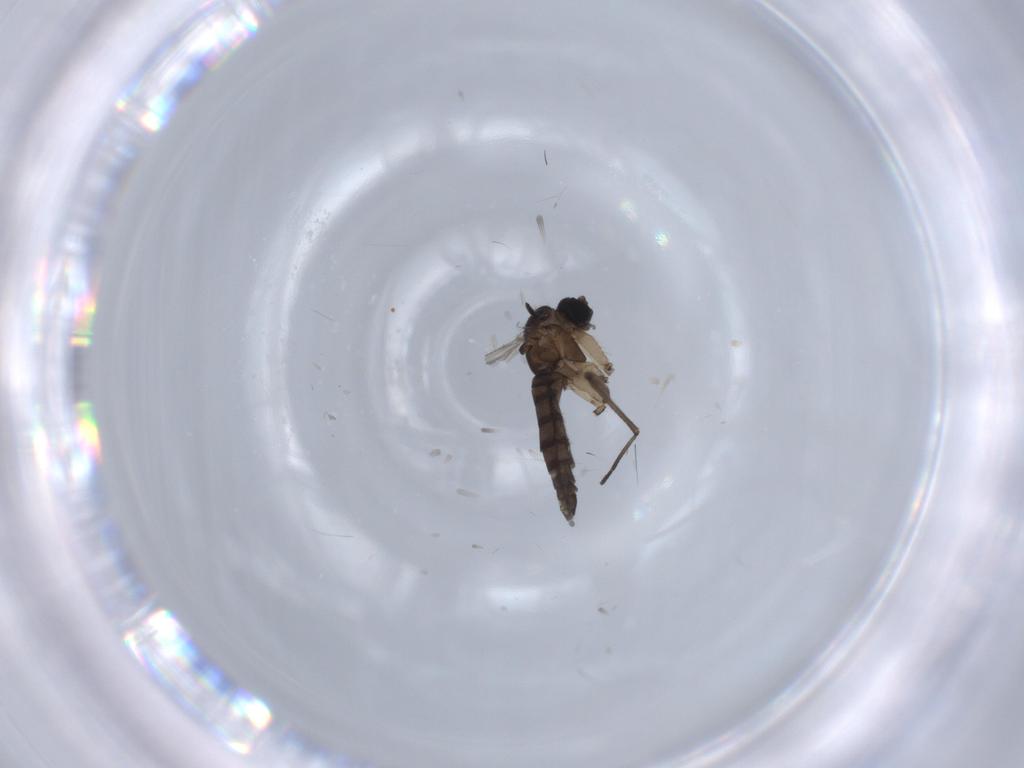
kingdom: Animalia
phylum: Arthropoda
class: Insecta
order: Diptera
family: Sciaridae
